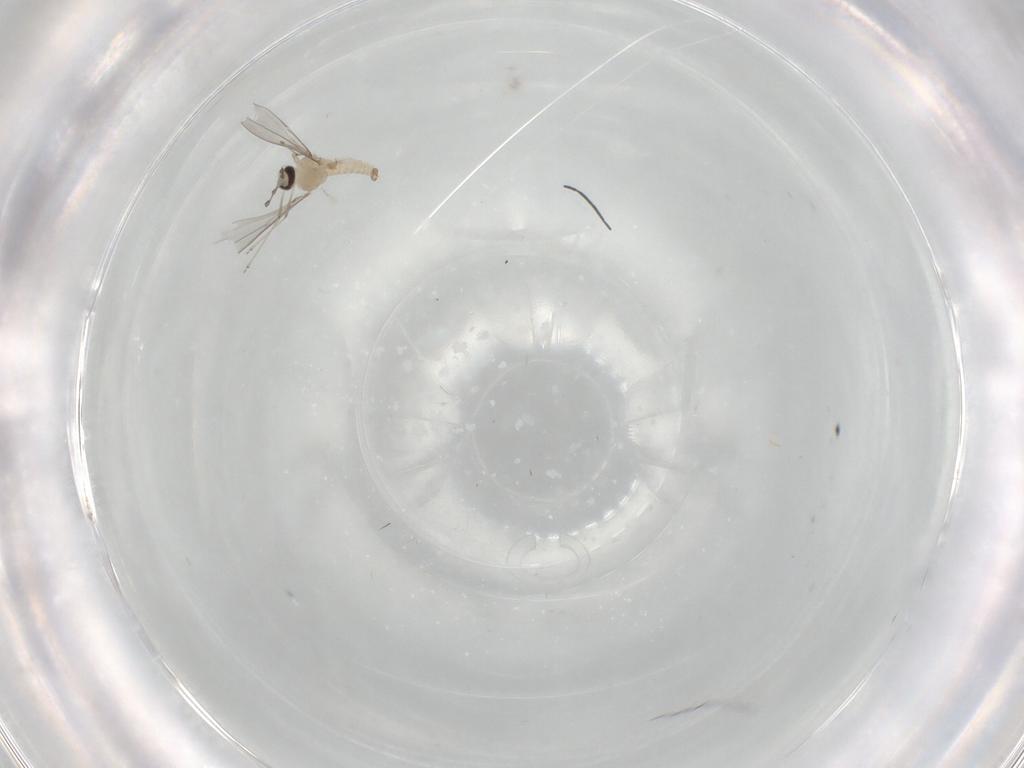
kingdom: Animalia
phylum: Arthropoda
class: Insecta
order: Diptera
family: Cecidomyiidae
